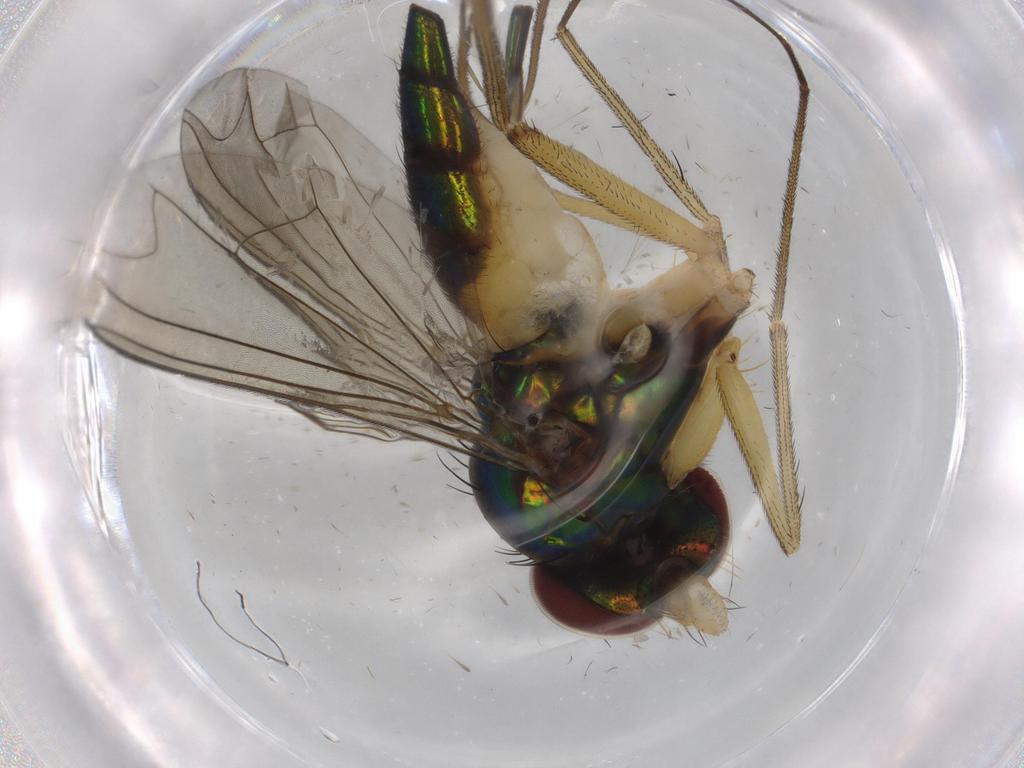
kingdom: Animalia
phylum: Arthropoda
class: Insecta
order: Diptera
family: Dolichopodidae
